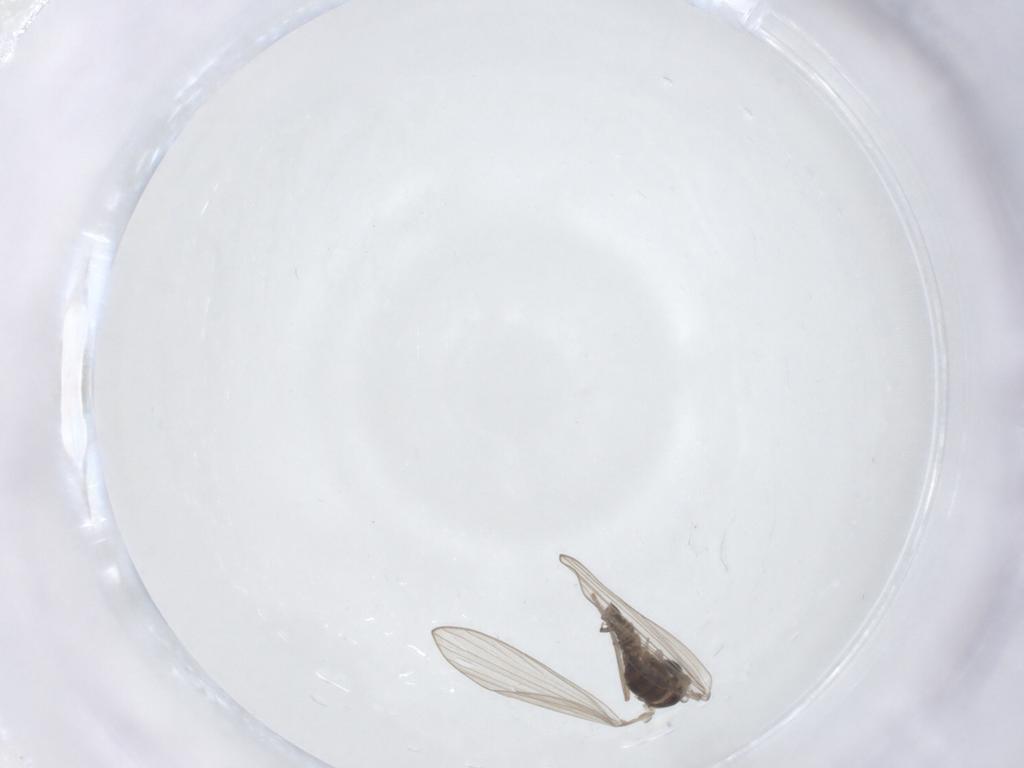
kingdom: Animalia
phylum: Arthropoda
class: Insecta
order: Diptera
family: Psychodidae
